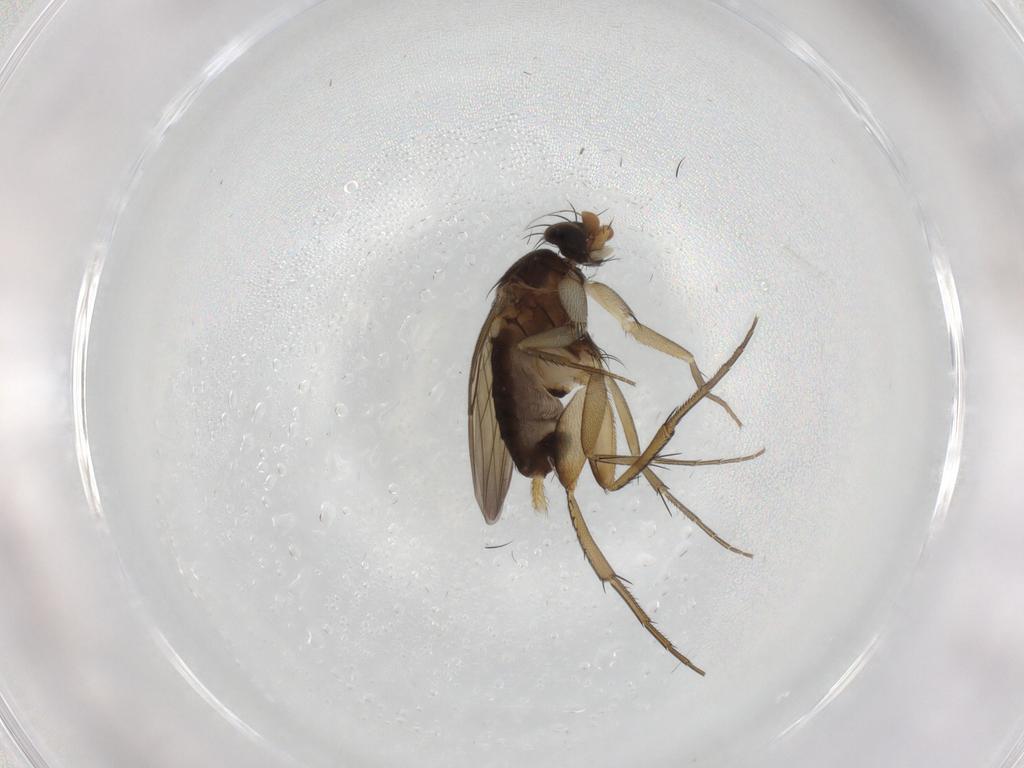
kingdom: Animalia
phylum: Arthropoda
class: Insecta
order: Diptera
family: Phoridae
